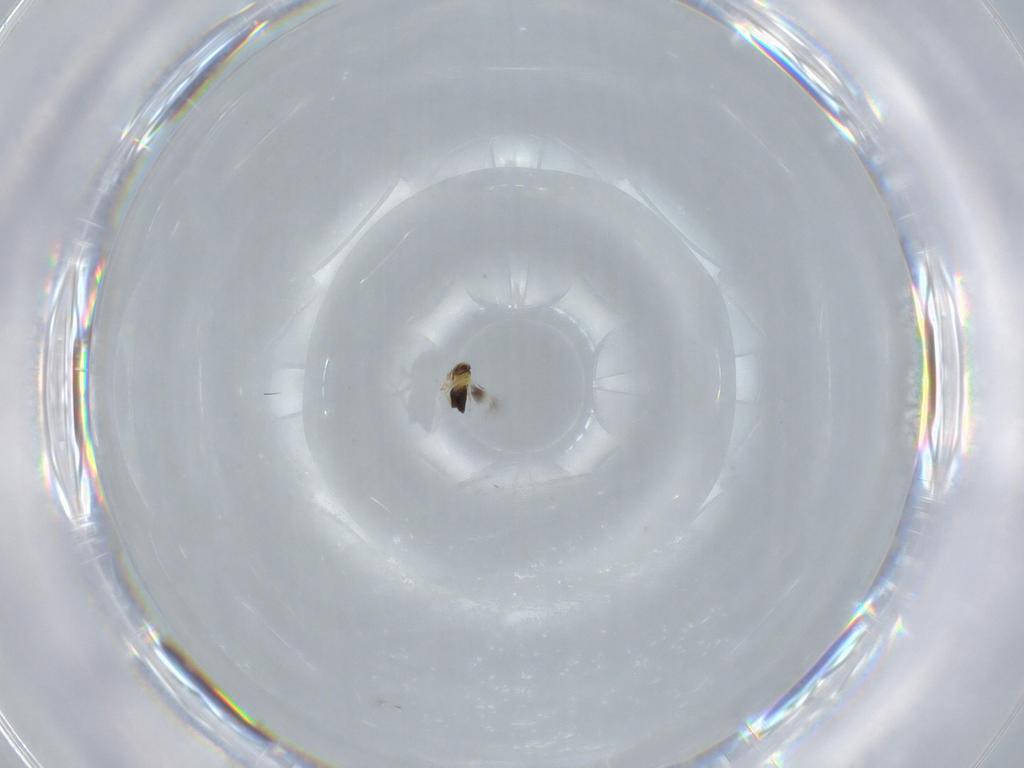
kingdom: Animalia
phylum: Arthropoda
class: Insecta
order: Hymenoptera
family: Signiphoridae
